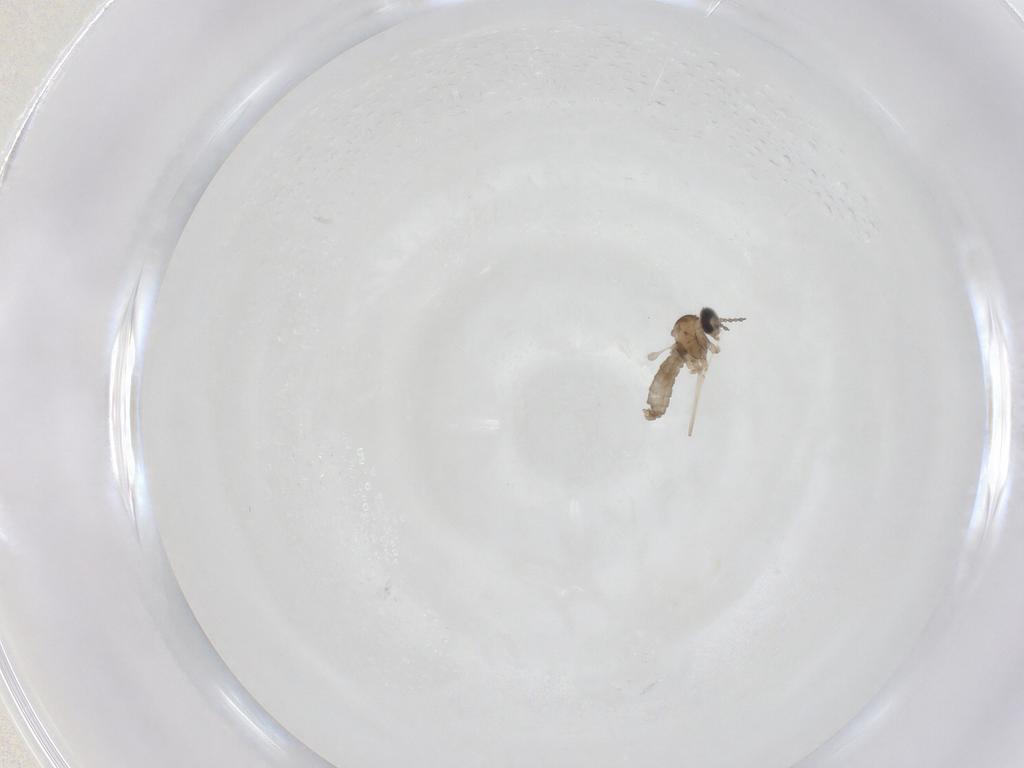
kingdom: Animalia
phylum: Arthropoda
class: Insecta
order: Diptera
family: Cecidomyiidae
